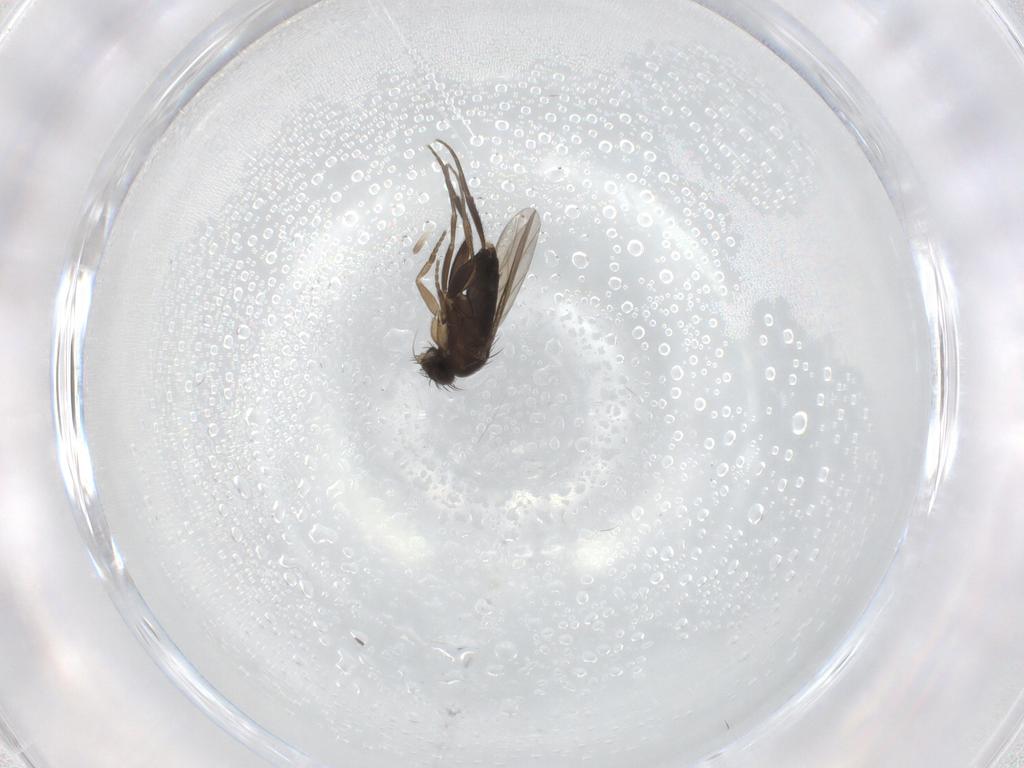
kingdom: Animalia
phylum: Arthropoda
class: Insecta
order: Diptera
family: Phoridae
